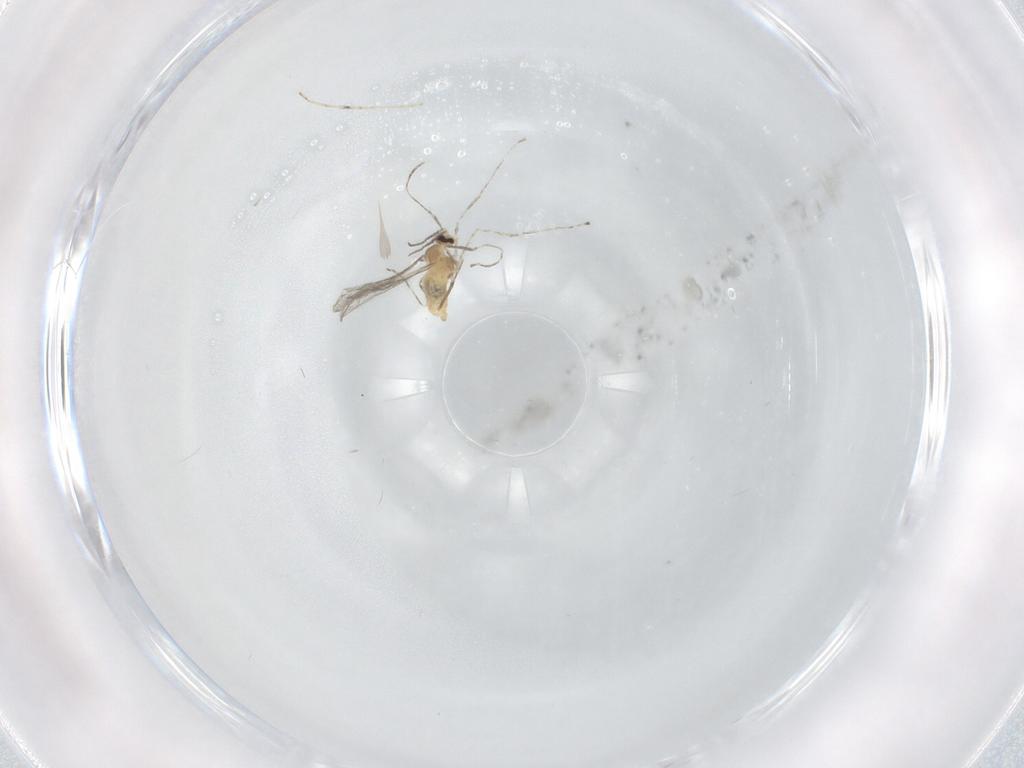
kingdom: Animalia
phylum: Arthropoda
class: Insecta
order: Diptera
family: Cecidomyiidae
